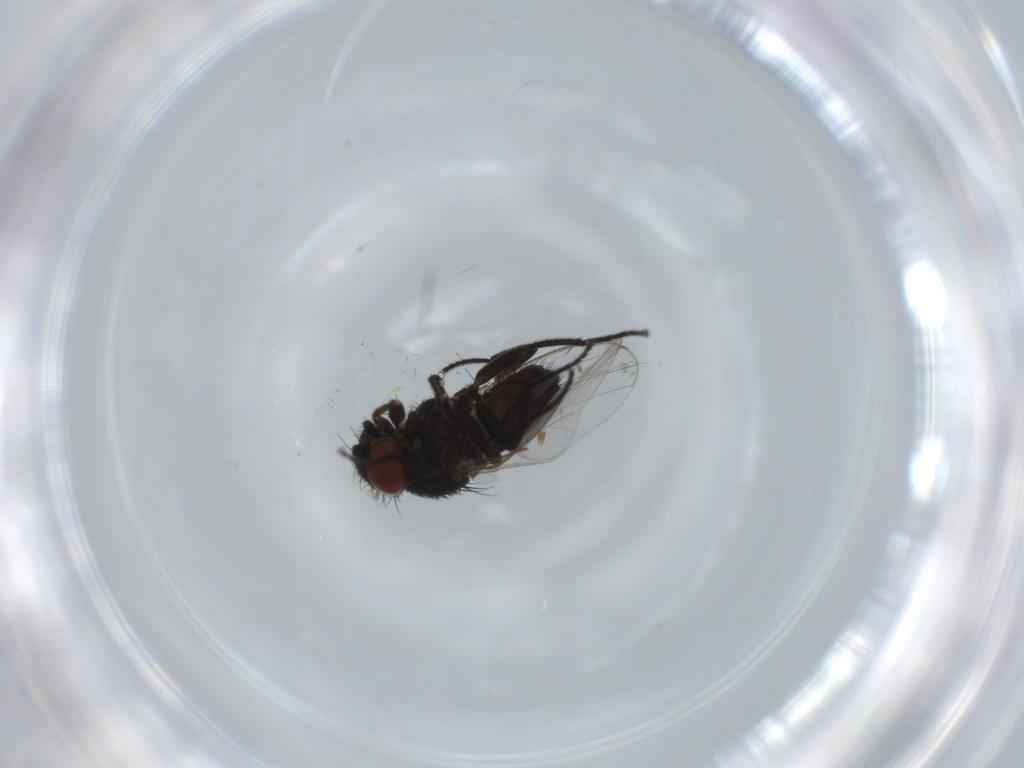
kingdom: Animalia
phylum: Arthropoda
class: Insecta
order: Diptera
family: Milichiidae
